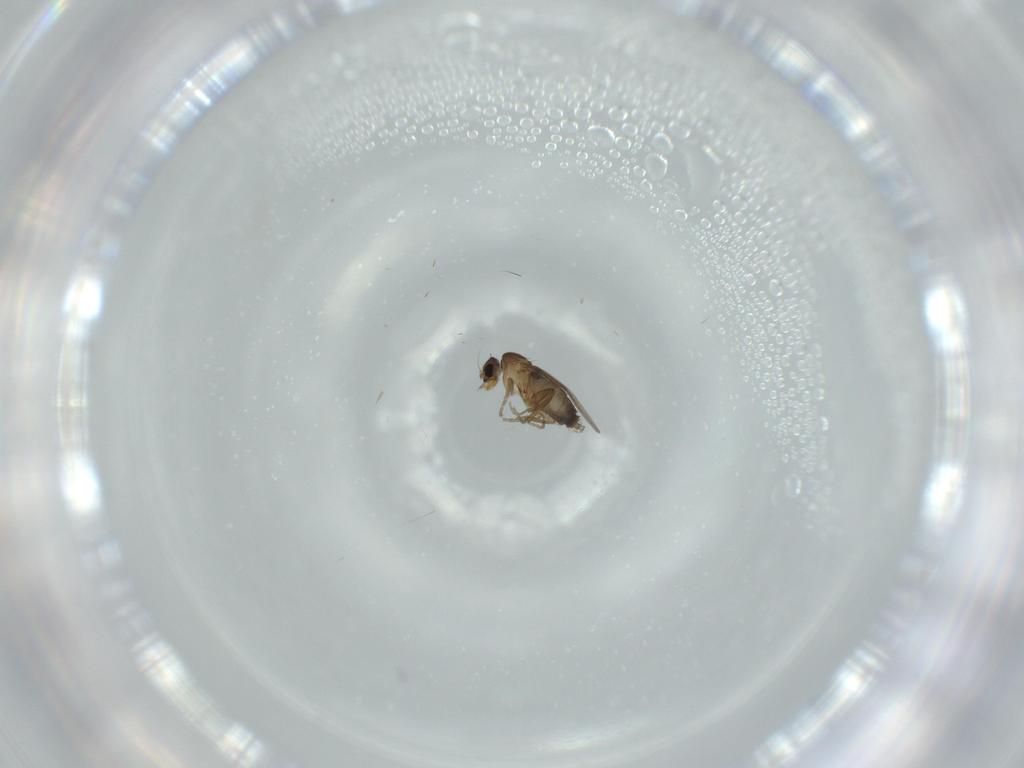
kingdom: Animalia
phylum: Arthropoda
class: Insecta
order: Diptera
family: Phoridae
